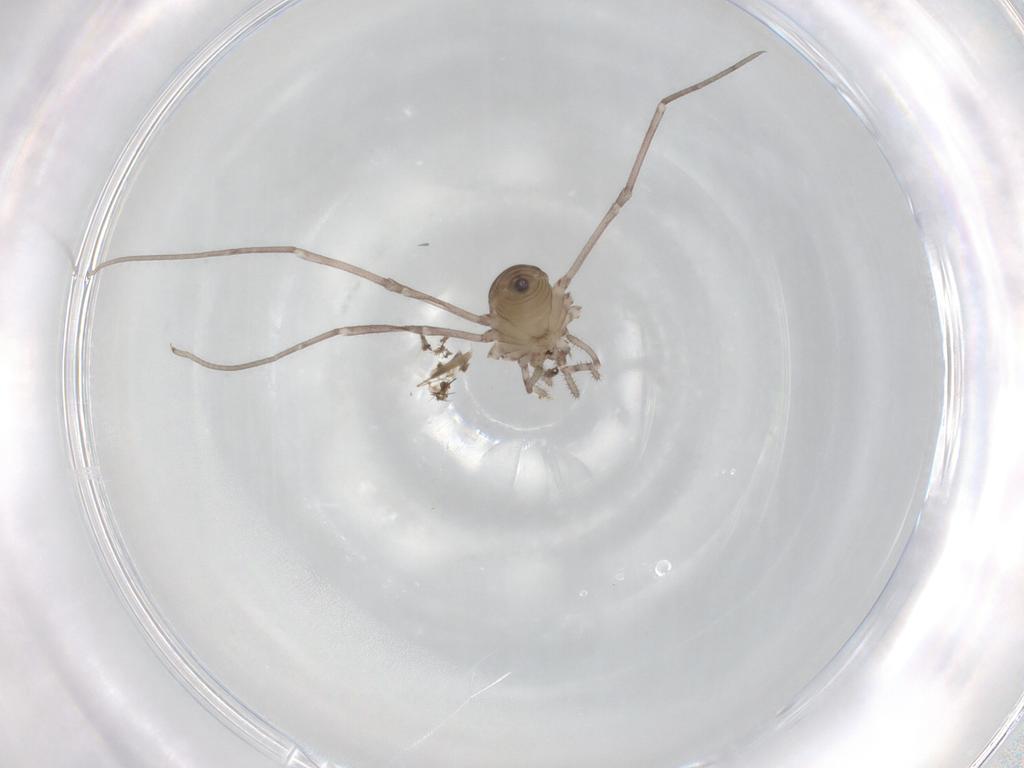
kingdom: Animalia
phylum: Arthropoda
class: Arachnida
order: Opiliones
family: Sclerosomatidae
